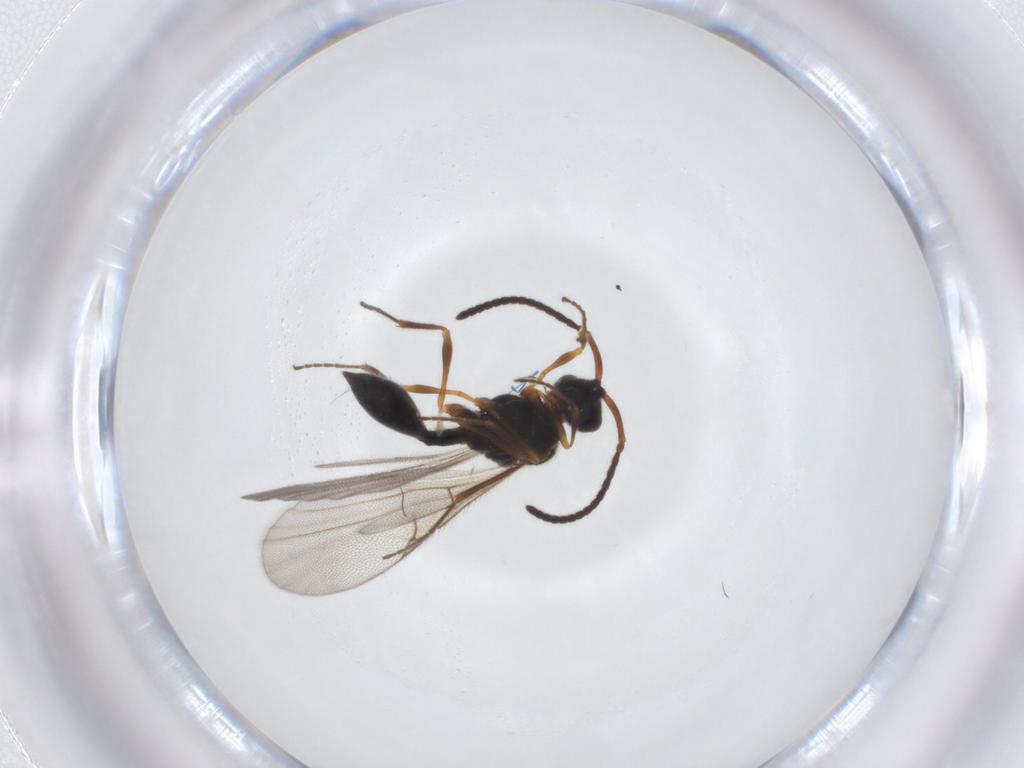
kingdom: Animalia
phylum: Arthropoda
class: Insecta
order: Hymenoptera
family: Diapriidae
